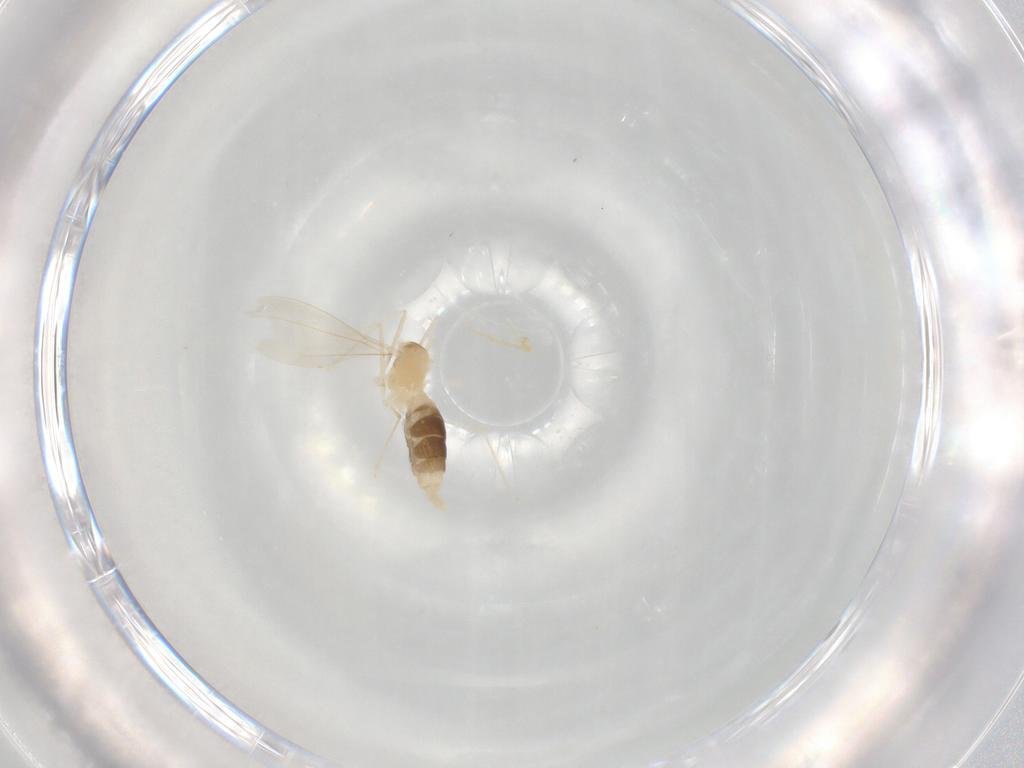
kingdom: Animalia
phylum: Arthropoda
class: Insecta
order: Diptera
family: Cecidomyiidae
